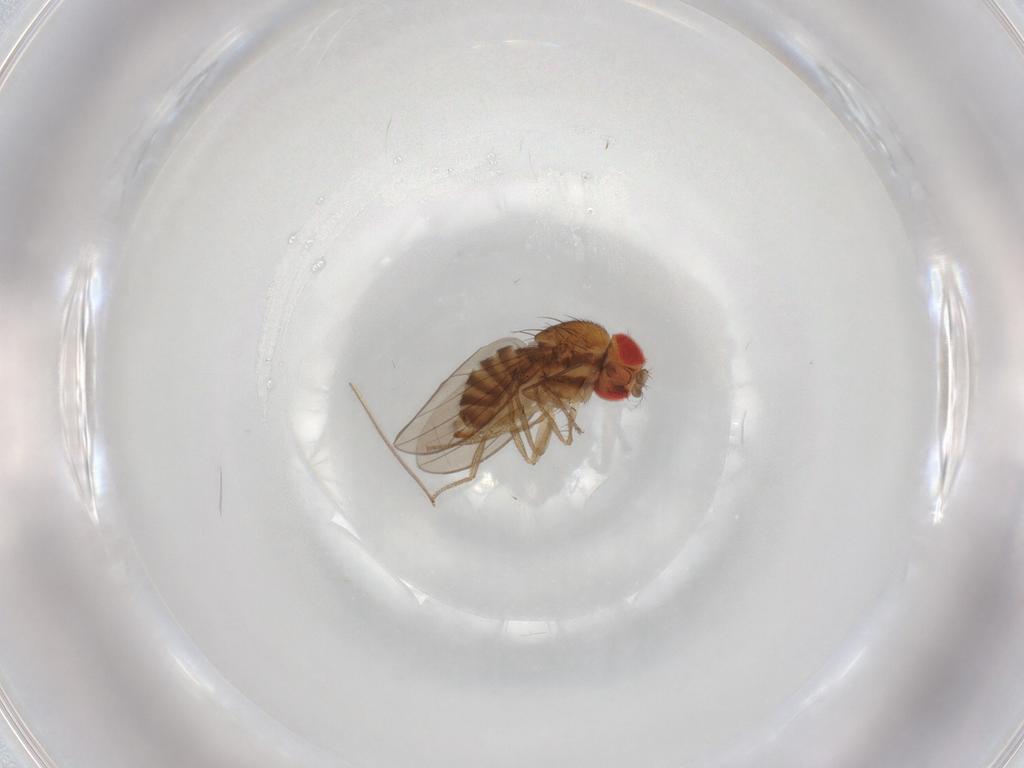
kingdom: Animalia
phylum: Arthropoda
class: Insecta
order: Diptera
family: Ephydridae
